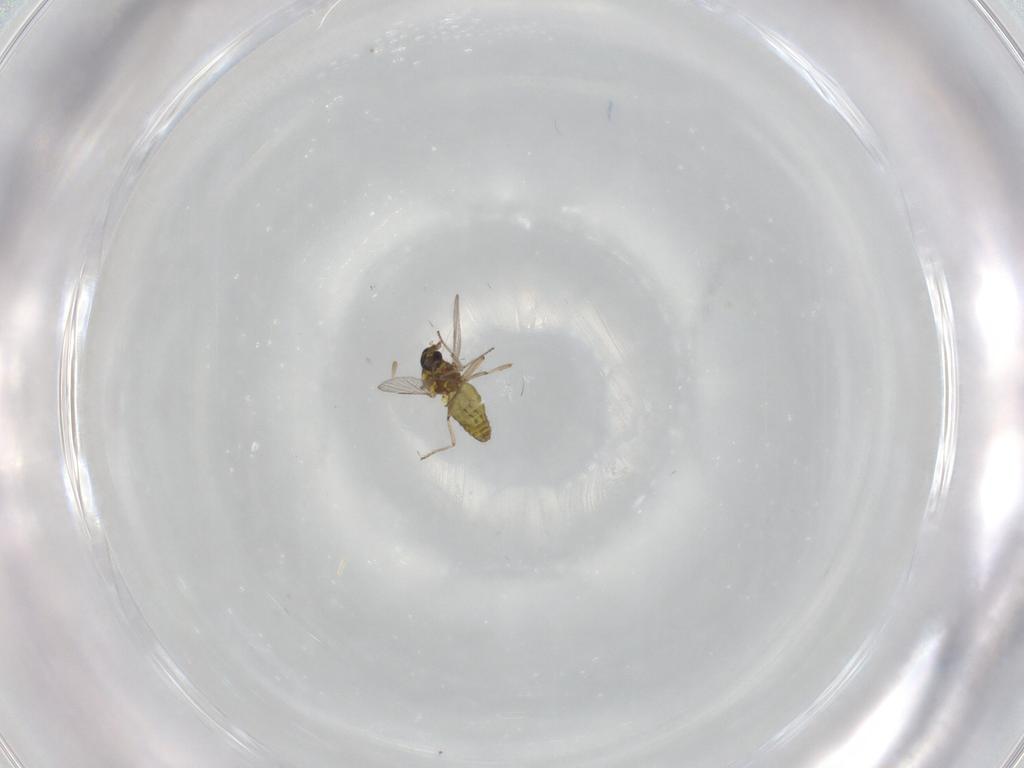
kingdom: Animalia
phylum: Arthropoda
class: Insecta
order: Diptera
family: Ceratopogonidae
